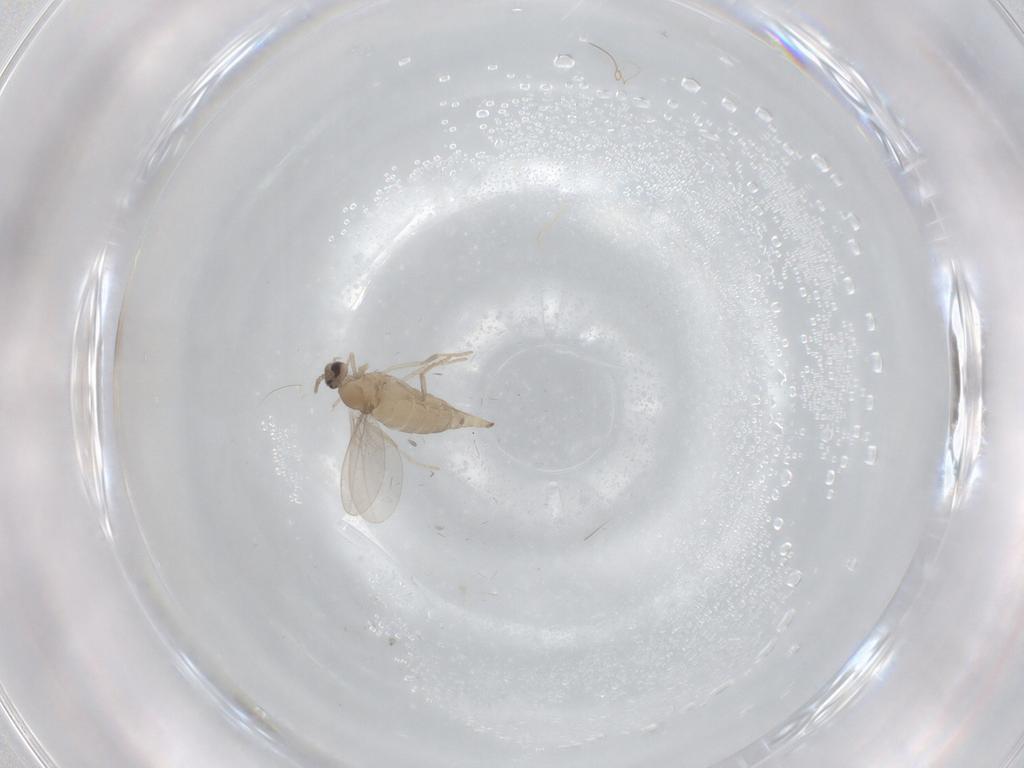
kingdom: Animalia
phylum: Arthropoda
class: Insecta
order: Diptera
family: Cecidomyiidae
